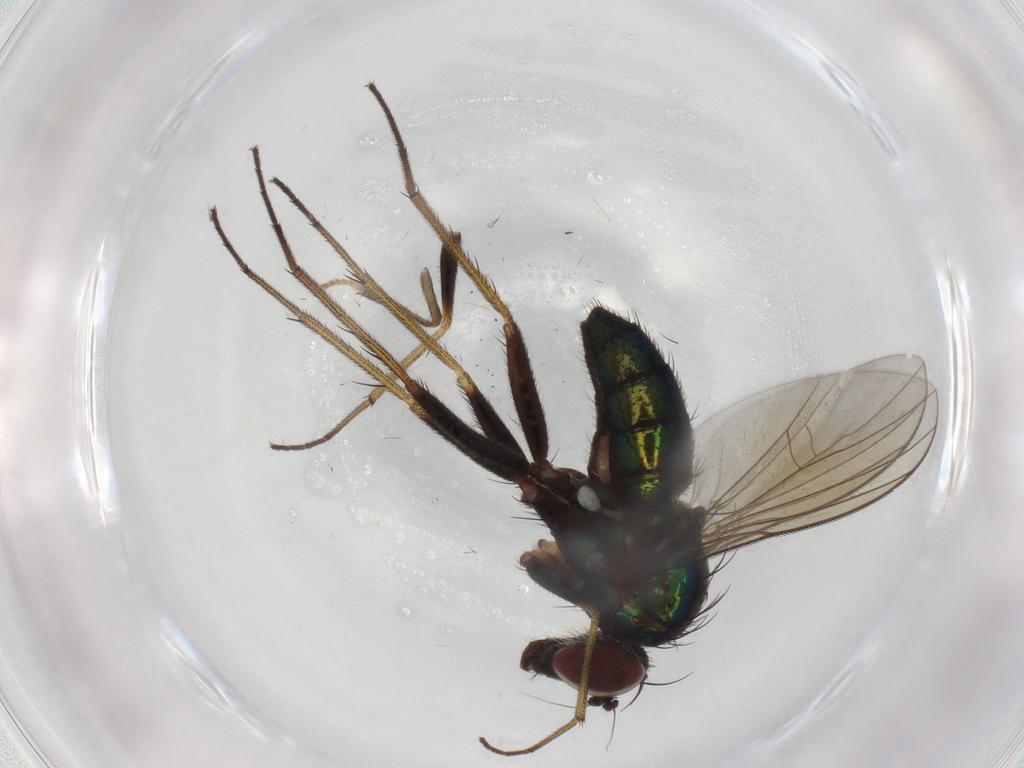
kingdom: Animalia
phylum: Arthropoda
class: Insecta
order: Diptera
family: Dolichopodidae
